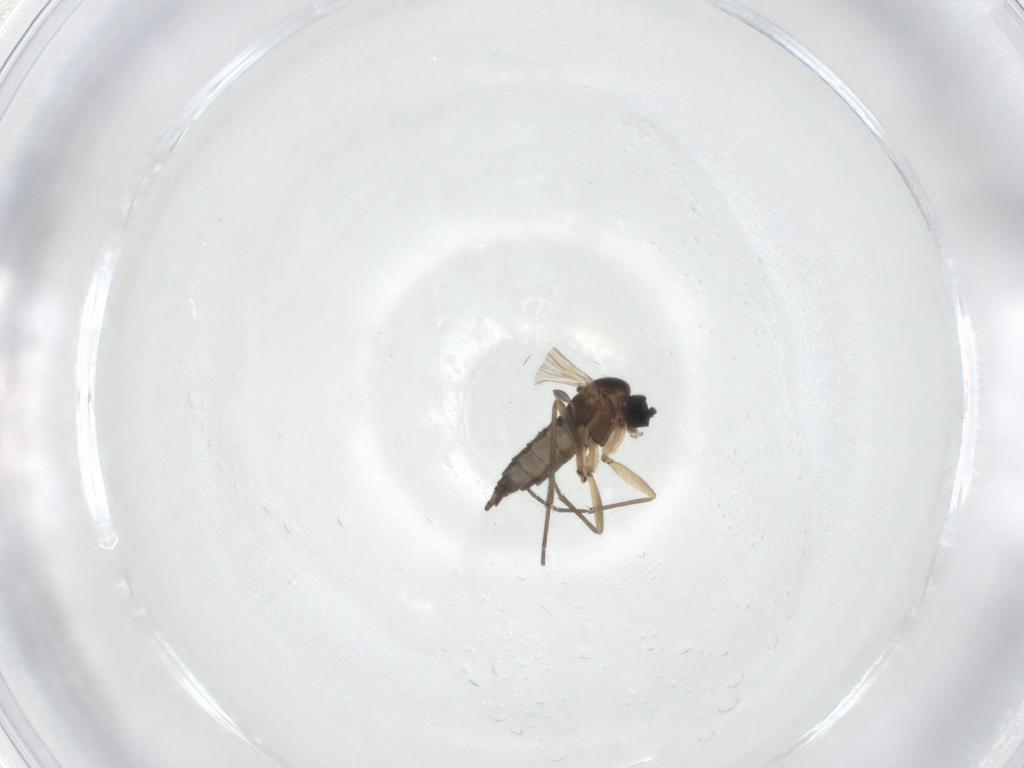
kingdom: Animalia
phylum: Arthropoda
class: Insecta
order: Diptera
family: Sciaridae
